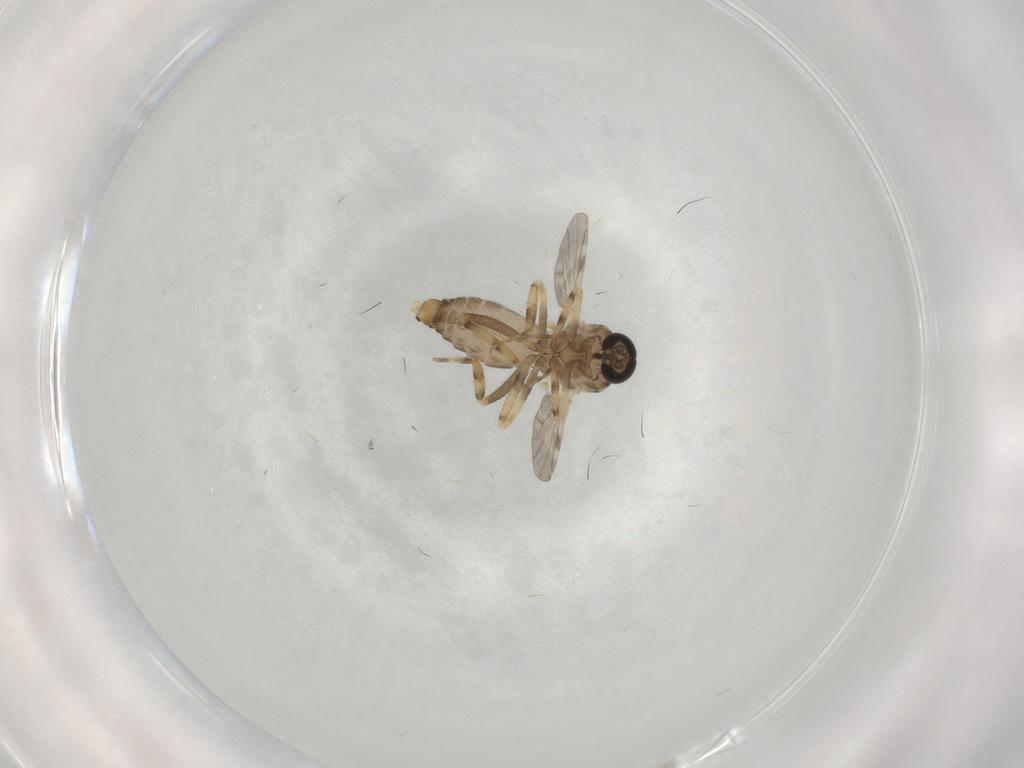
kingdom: Animalia
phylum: Arthropoda
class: Insecta
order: Diptera
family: Ceratopogonidae
